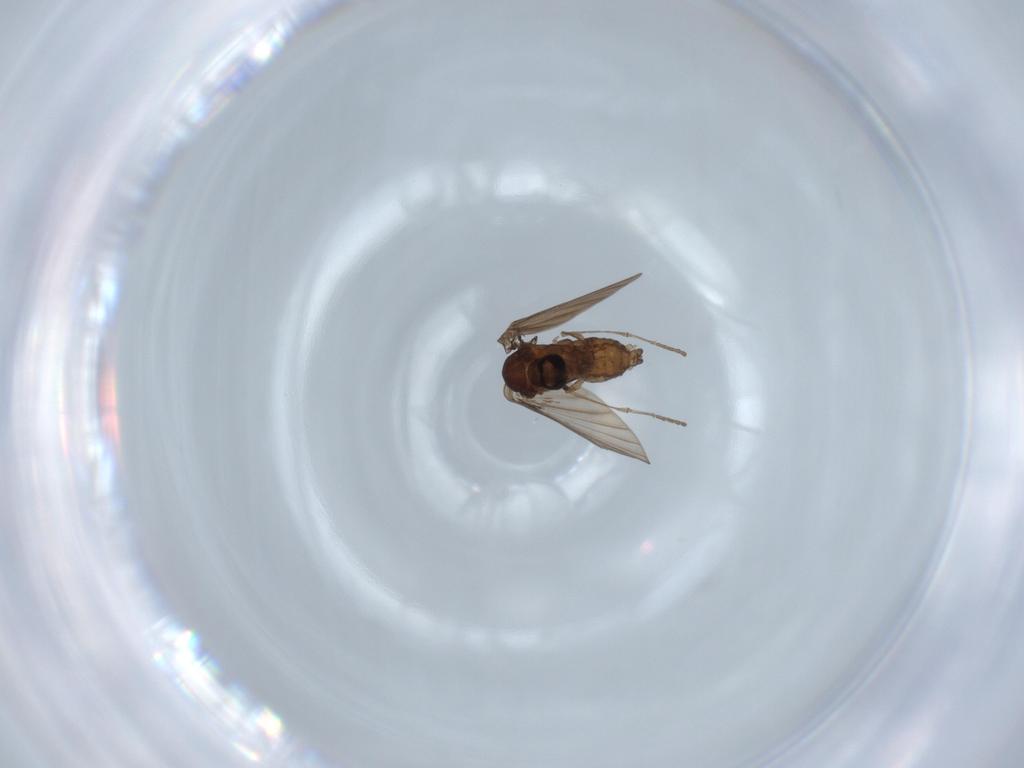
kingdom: Animalia
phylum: Arthropoda
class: Insecta
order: Diptera
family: Psychodidae
